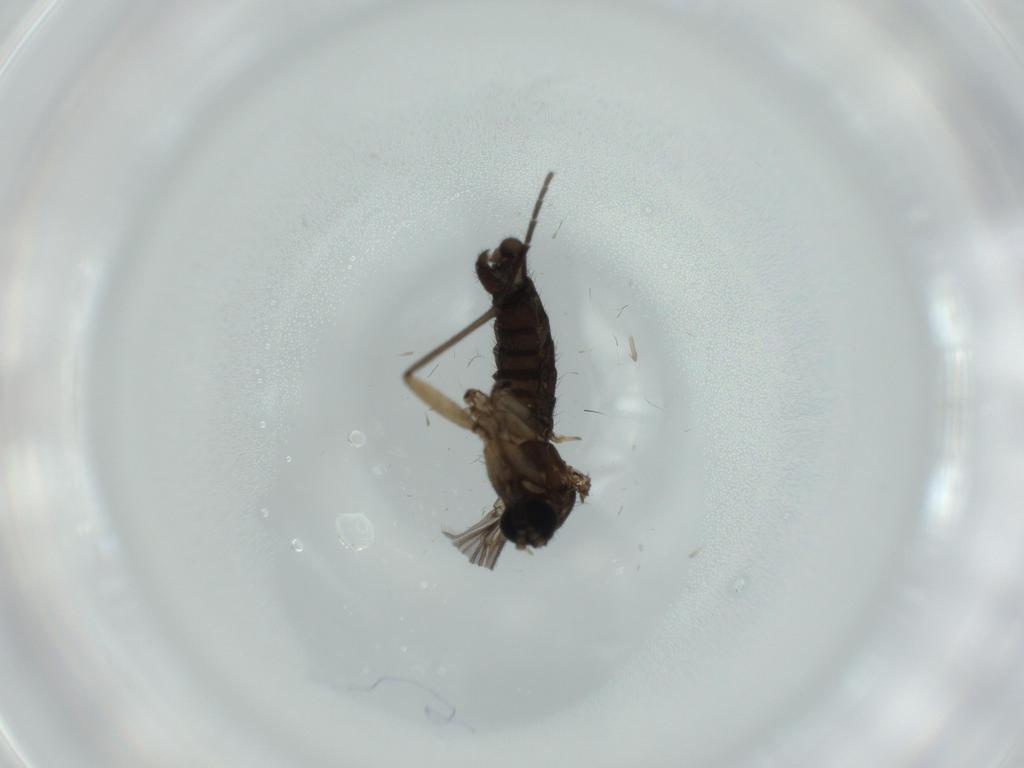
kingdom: Animalia
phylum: Arthropoda
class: Insecta
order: Diptera
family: Sciaridae
